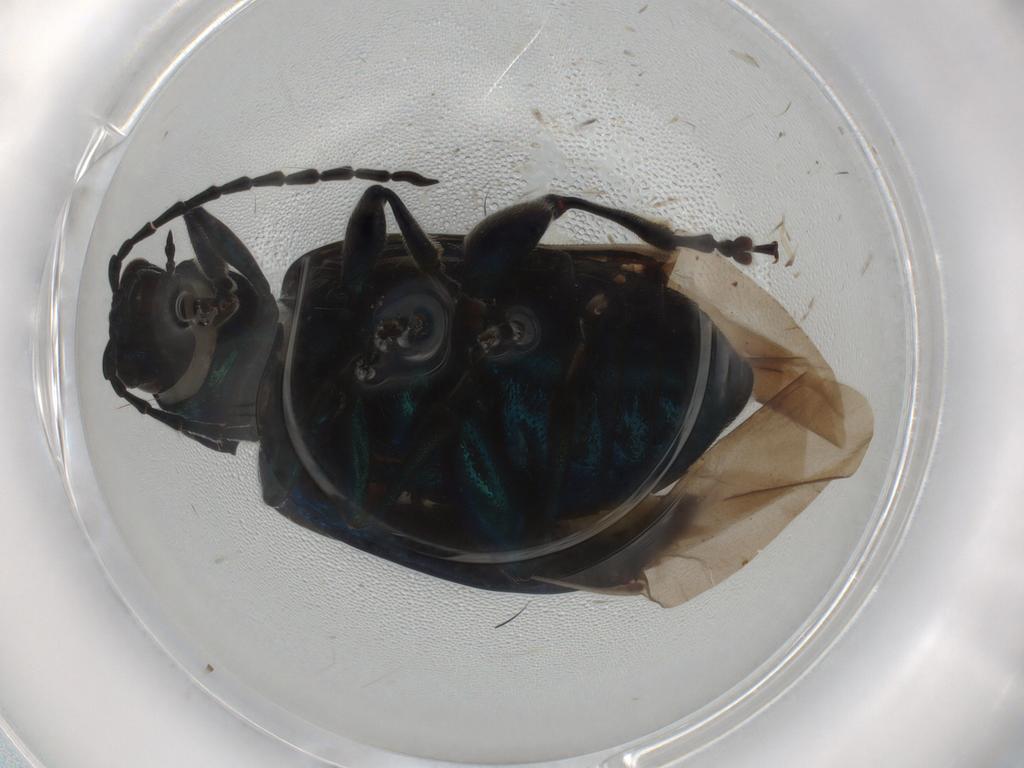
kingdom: Animalia
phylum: Arthropoda
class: Insecta
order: Coleoptera
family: Chrysomelidae
